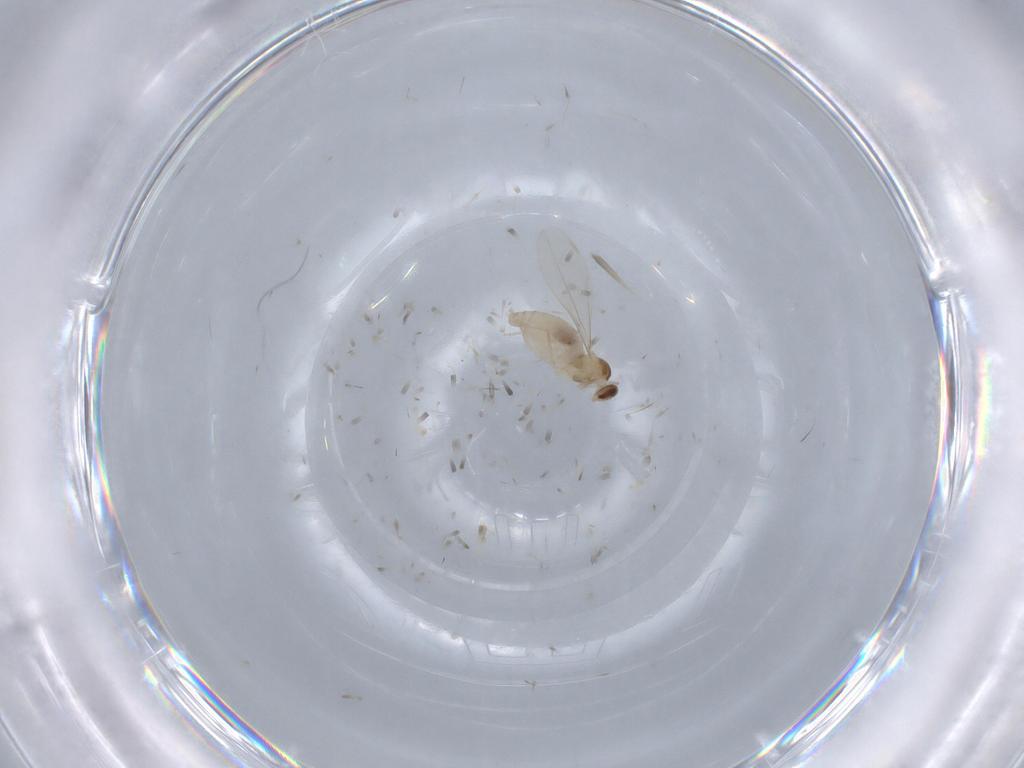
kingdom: Animalia
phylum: Arthropoda
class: Insecta
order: Diptera
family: Cecidomyiidae
